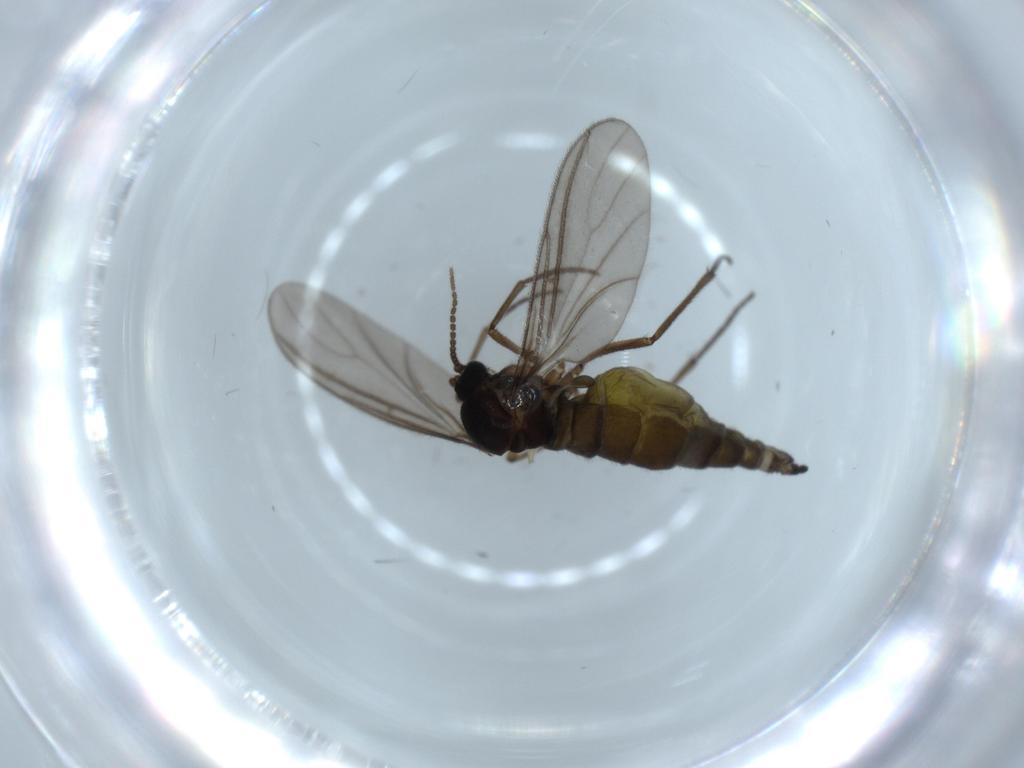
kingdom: Animalia
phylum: Arthropoda
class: Insecta
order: Diptera
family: Sciaridae
